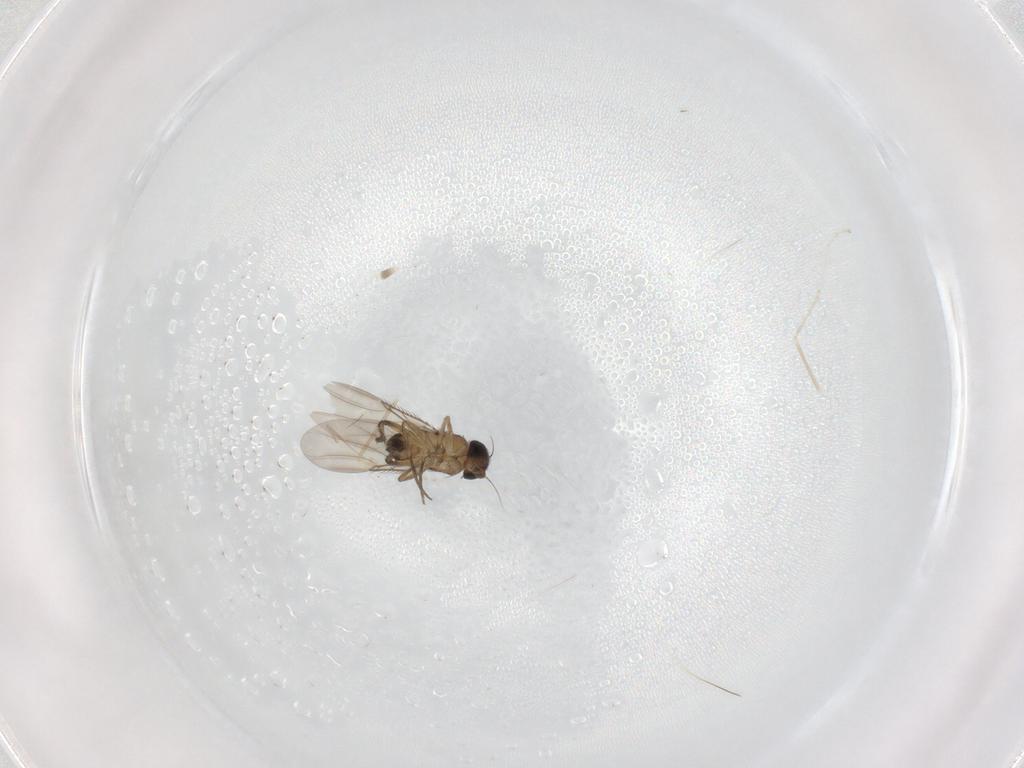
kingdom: Animalia
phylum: Arthropoda
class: Insecta
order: Diptera
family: Phoridae
